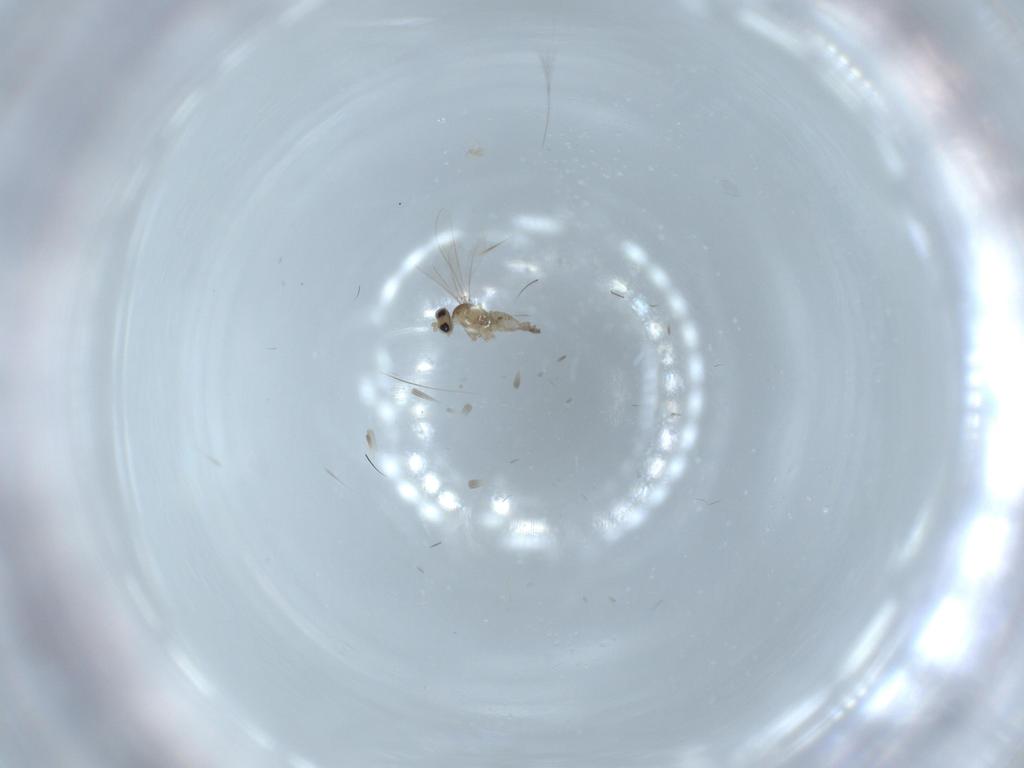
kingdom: Animalia
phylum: Arthropoda
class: Insecta
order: Diptera
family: Cecidomyiidae
